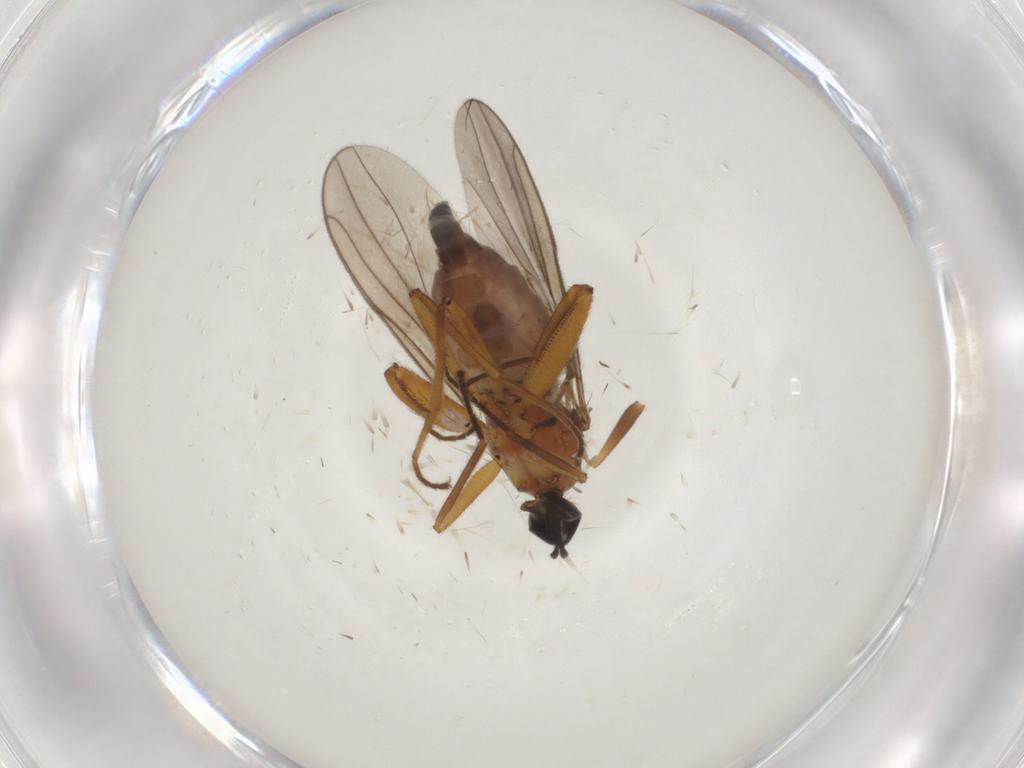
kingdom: Animalia
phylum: Arthropoda
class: Insecta
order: Diptera
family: Hybotidae
